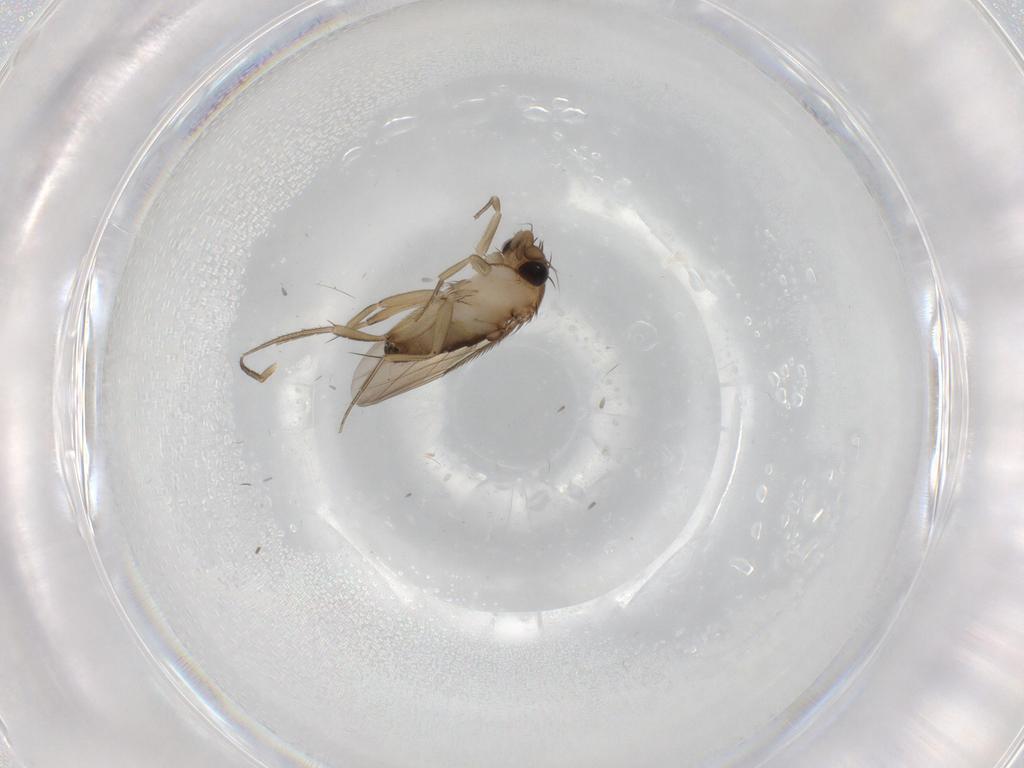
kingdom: Animalia
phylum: Arthropoda
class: Insecta
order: Diptera
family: Phoridae
